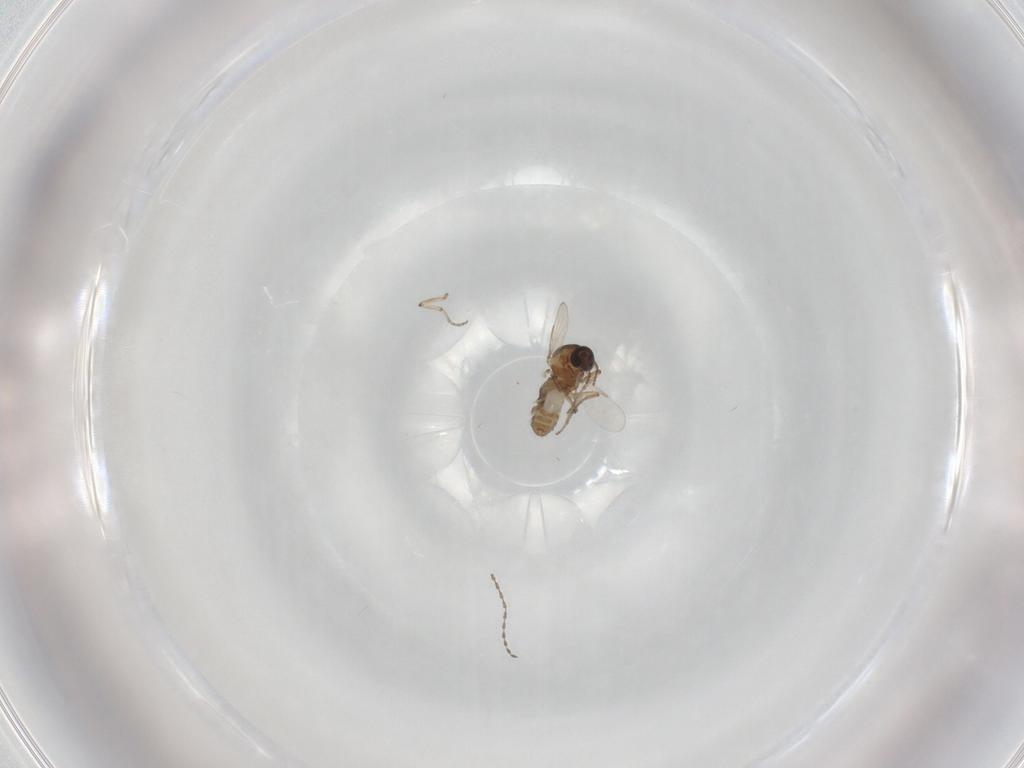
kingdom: Animalia
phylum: Arthropoda
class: Insecta
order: Diptera
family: Ceratopogonidae
